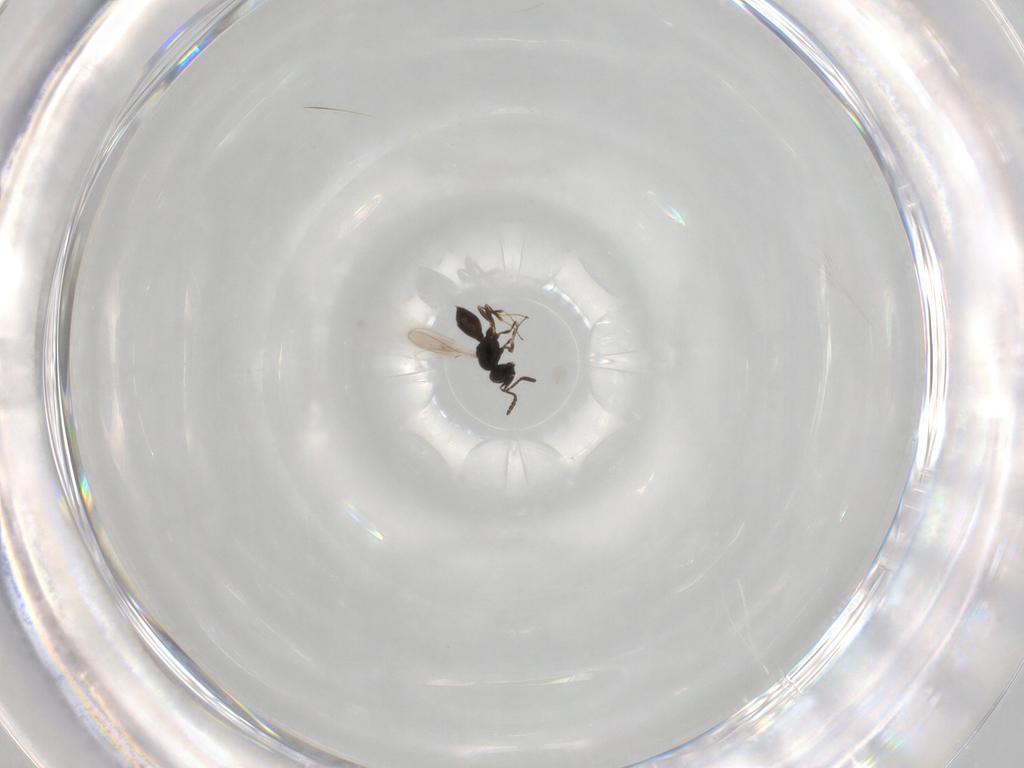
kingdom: Animalia
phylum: Arthropoda
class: Insecta
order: Hymenoptera
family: Scelionidae
